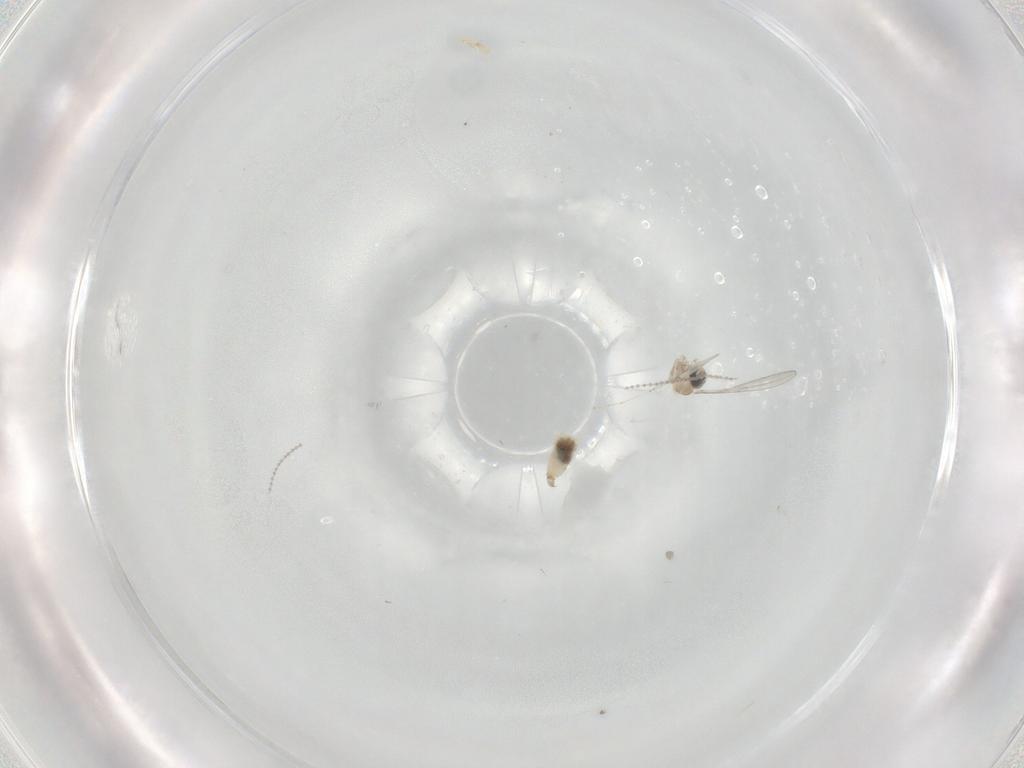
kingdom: Animalia
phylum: Arthropoda
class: Insecta
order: Diptera
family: Cecidomyiidae
